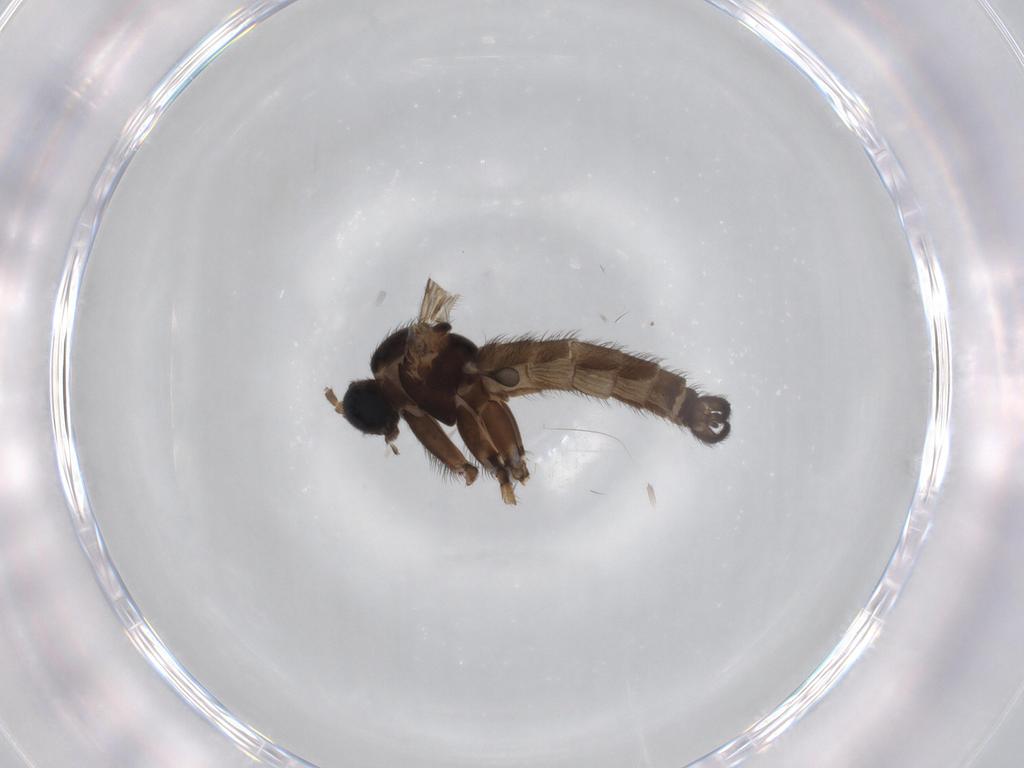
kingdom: Animalia
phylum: Arthropoda
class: Insecta
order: Diptera
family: Sciaridae
